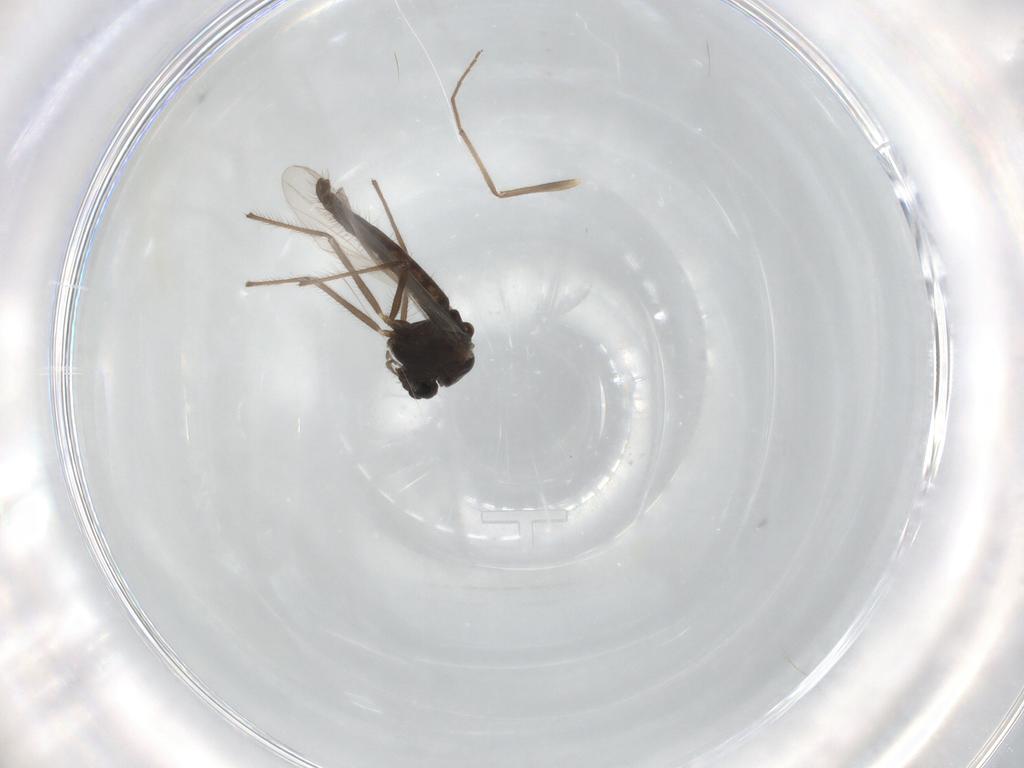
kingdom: Animalia
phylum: Arthropoda
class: Insecta
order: Diptera
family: Chironomidae
